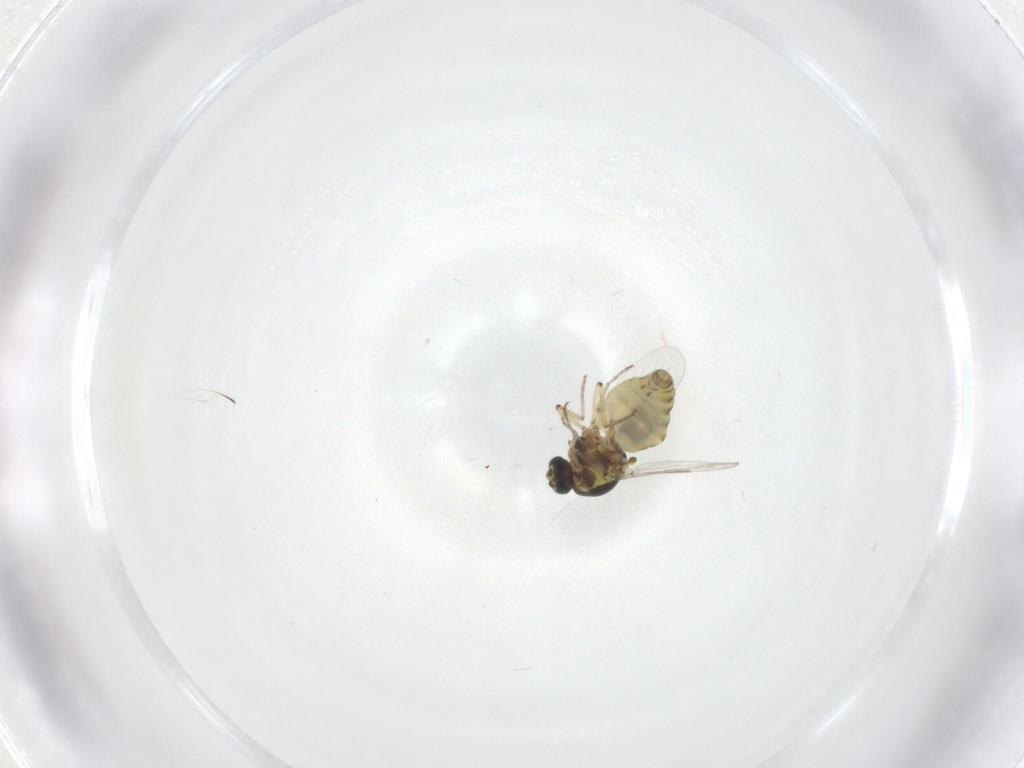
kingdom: Animalia
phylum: Arthropoda
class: Insecta
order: Diptera
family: Ceratopogonidae
